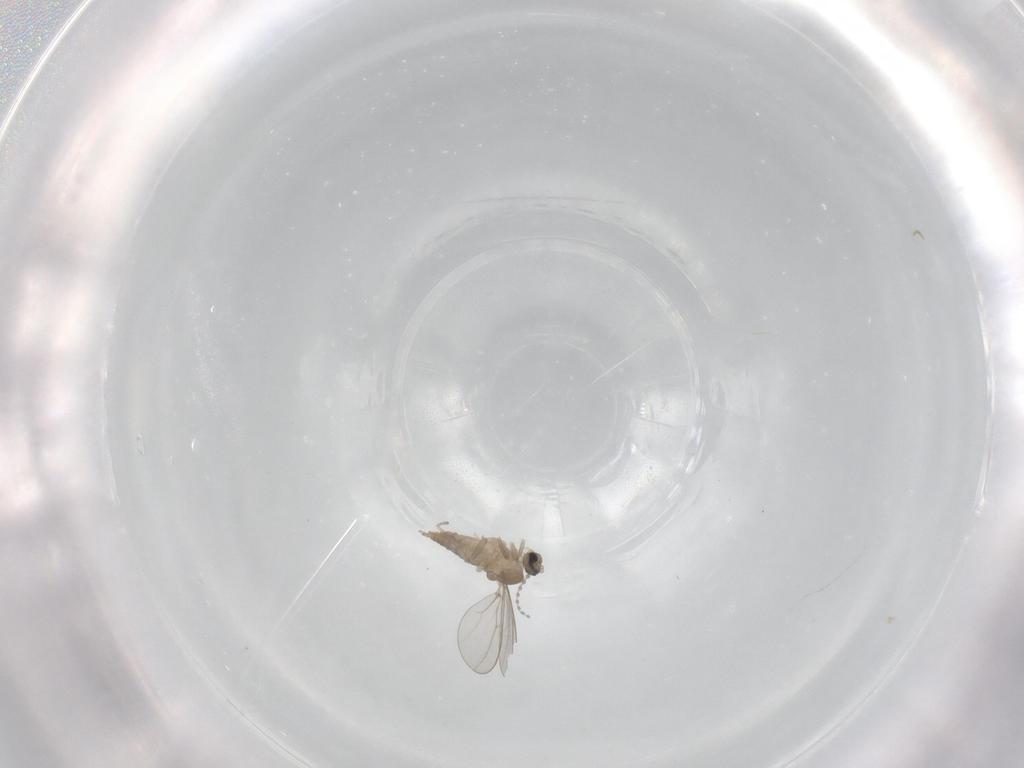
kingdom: Animalia
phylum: Arthropoda
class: Insecta
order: Diptera
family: Cecidomyiidae
